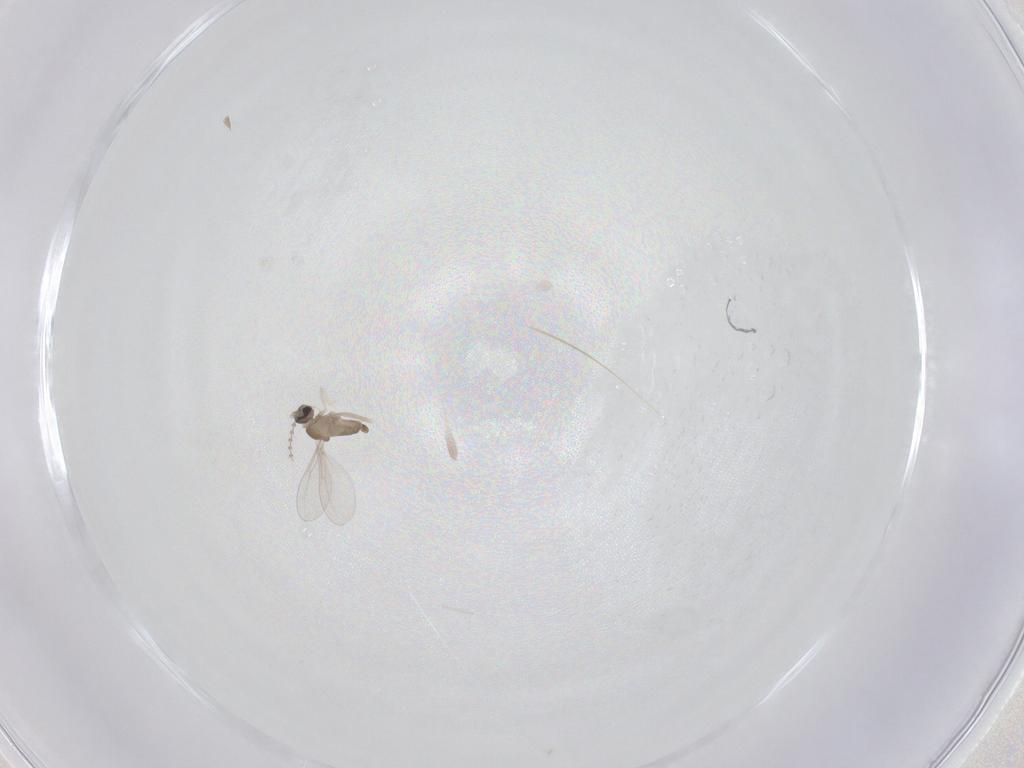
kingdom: Animalia
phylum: Arthropoda
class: Insecta
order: Diptera
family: Cecidomyiidae
